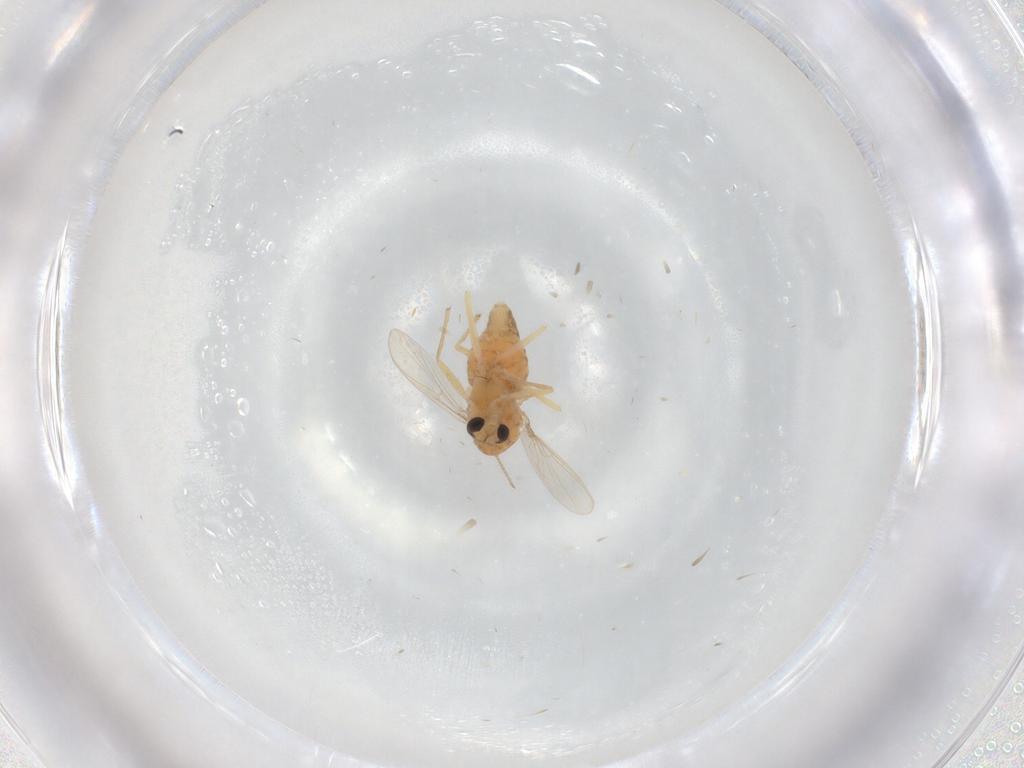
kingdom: Animalia
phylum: Arthropoda
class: Insecta
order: Diptera
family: Chironomidae
